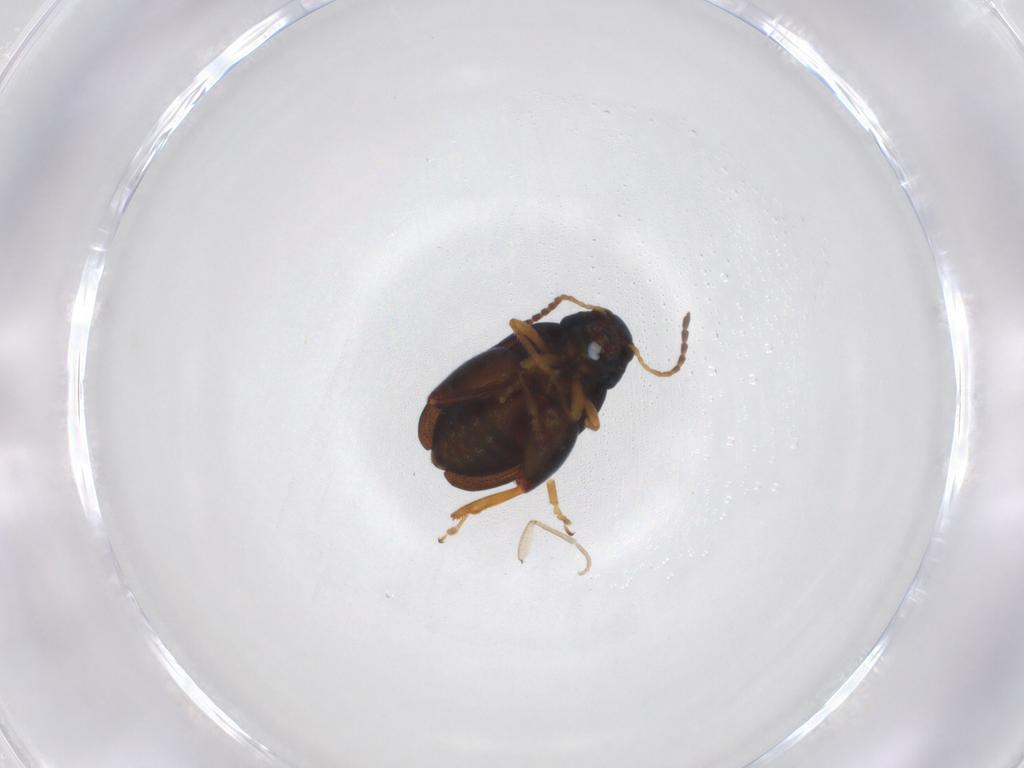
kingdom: Animalia
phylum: Arthropoda
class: Insecta
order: Coleoptera
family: Chrysomelidae
